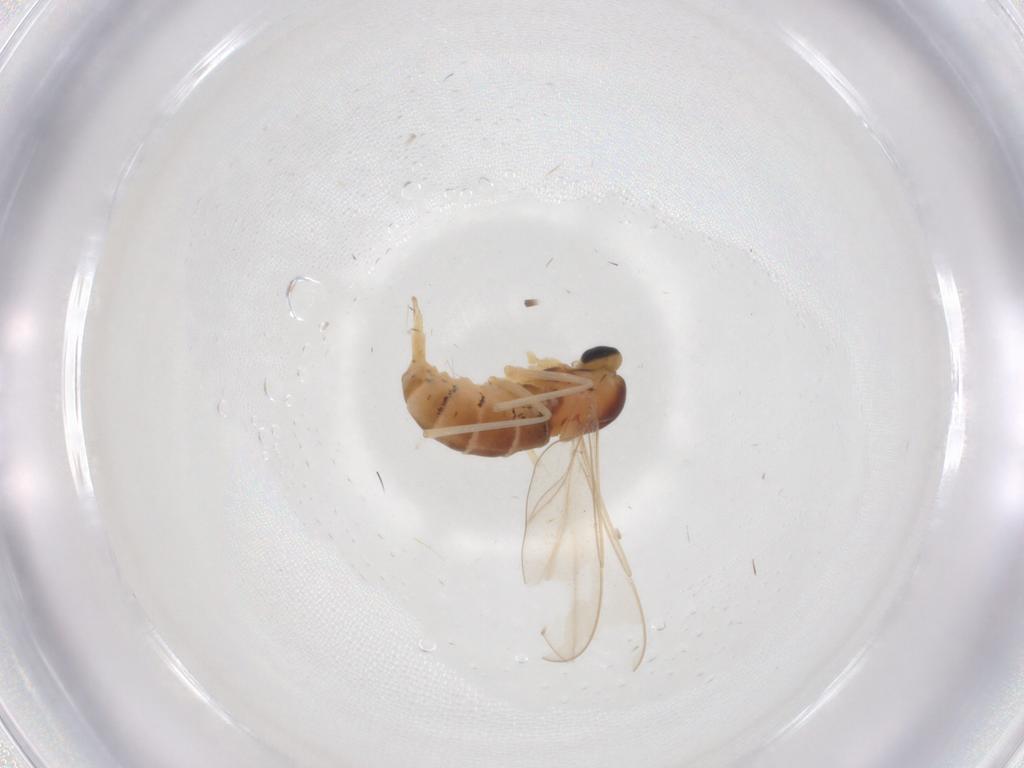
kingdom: Animalia
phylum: Arthropoda
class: Insecta
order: Diptera
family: Cecidomyiidae
